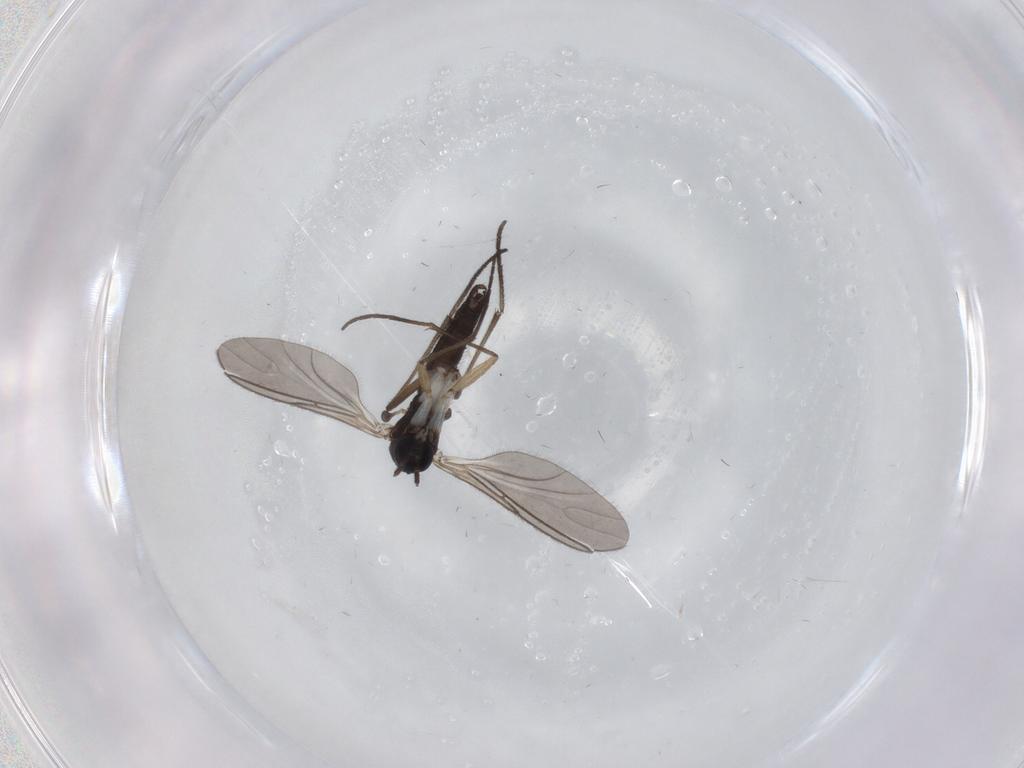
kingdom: Animalia
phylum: Arthropoda
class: Insecta
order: Diptera
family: Sciaridae
